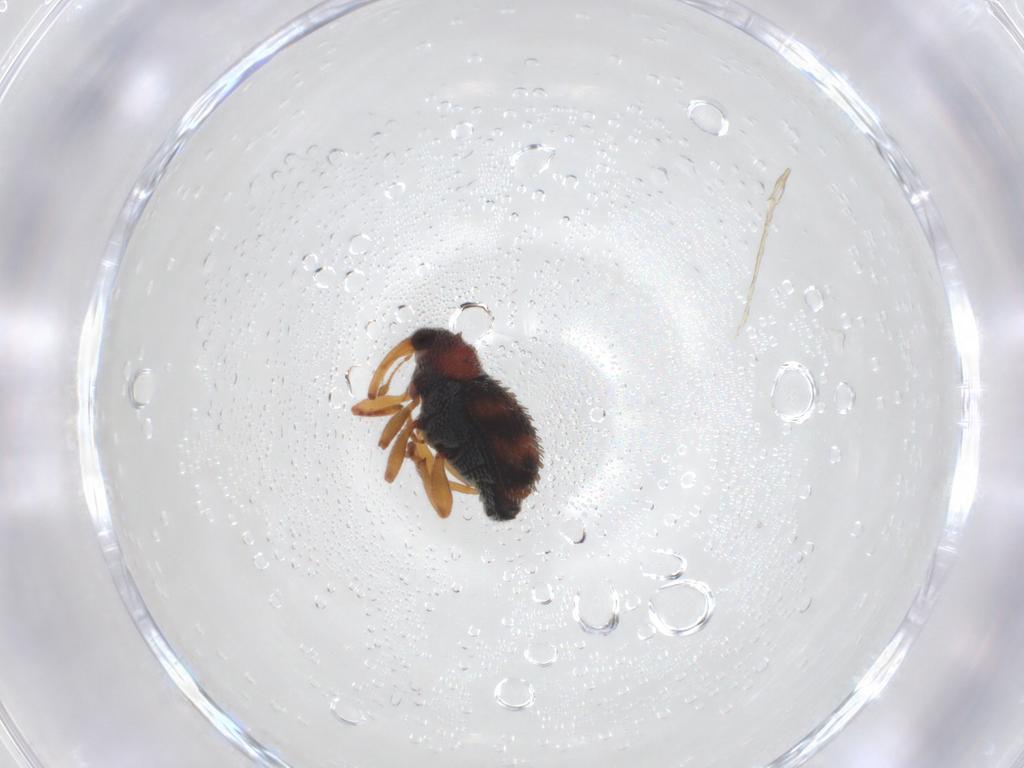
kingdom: Animalia
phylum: Arthropoda
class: Insecta
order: Coleoptera
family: Curculionidae
